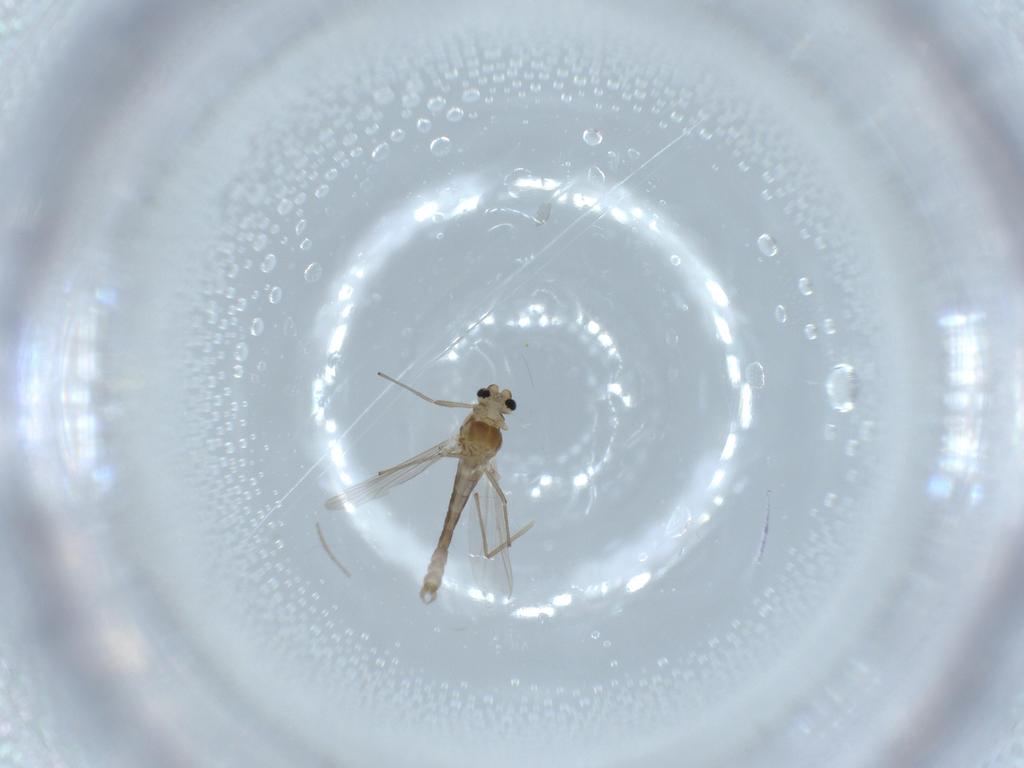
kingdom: Animalia
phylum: Arthropoda
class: Insecta
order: Diptera
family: Chironomidae
